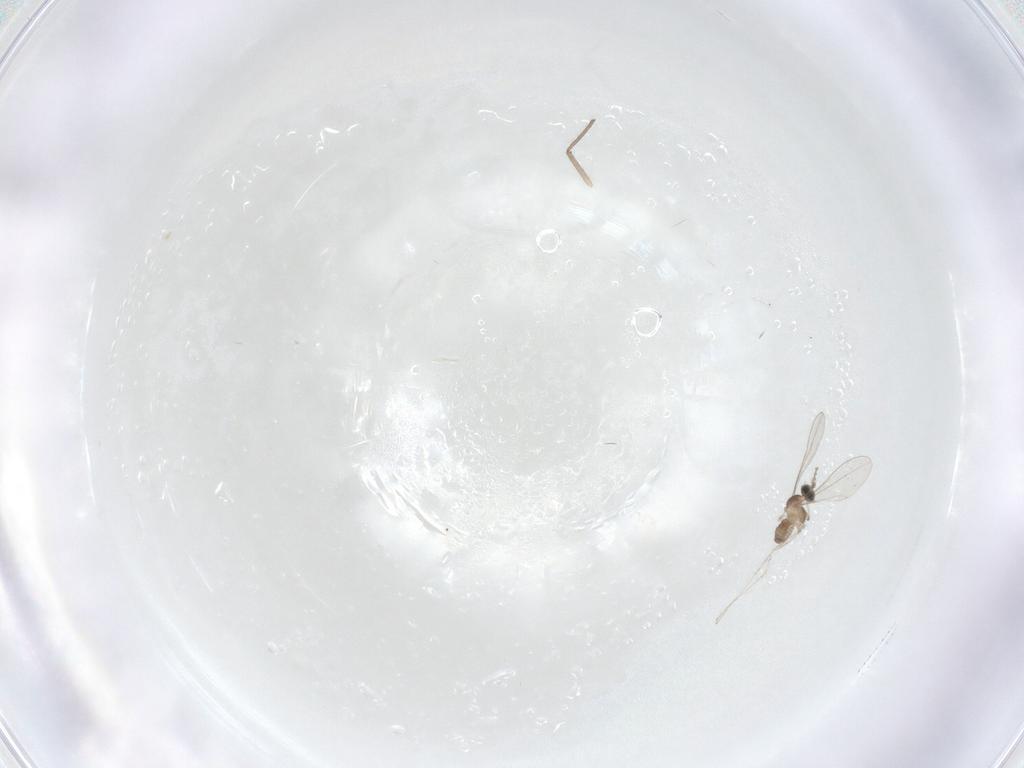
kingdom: Animalia
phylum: Arthropoda
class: Insecta
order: Diptera
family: Cecidomyiidae
